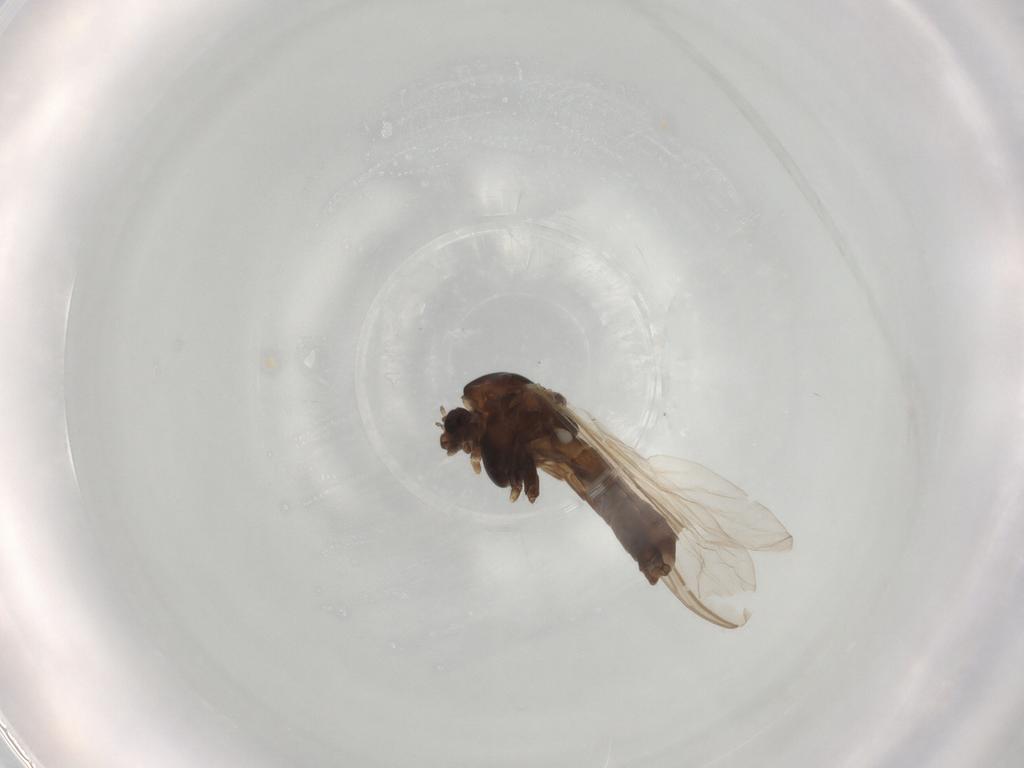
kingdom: Animalia
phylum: Arthropoda
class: Insecta
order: Diptera
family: Chironomidae
